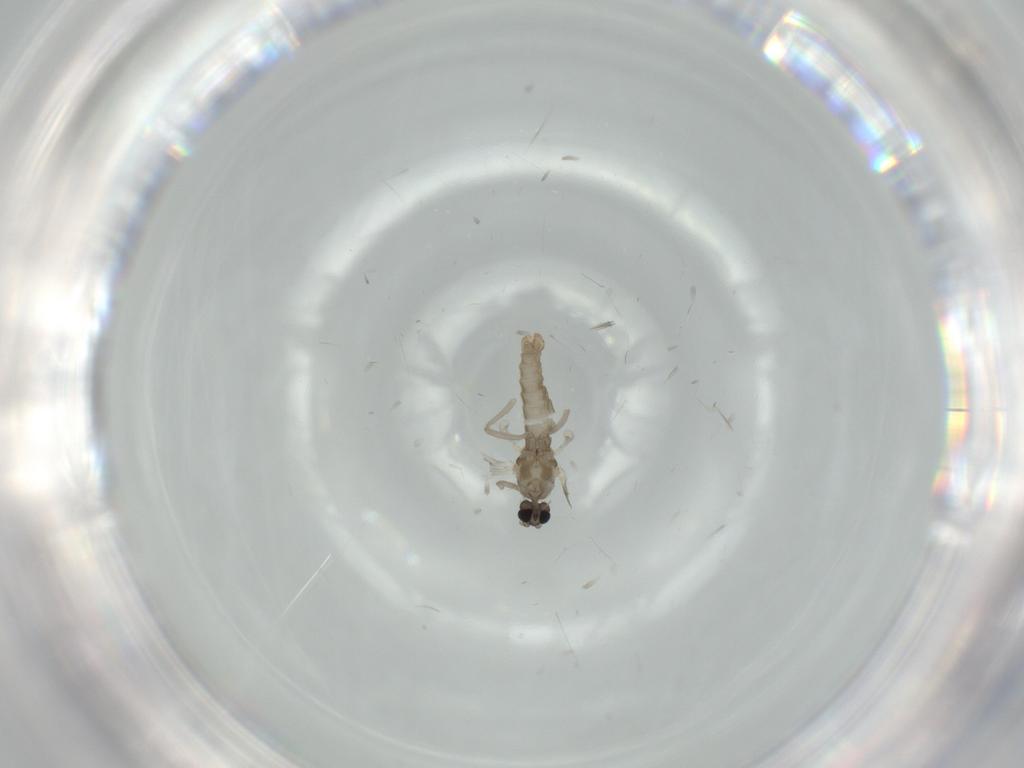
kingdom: Animalia
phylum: Arthropoda
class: Insecta
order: Diptera
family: Cecidomyiidae
